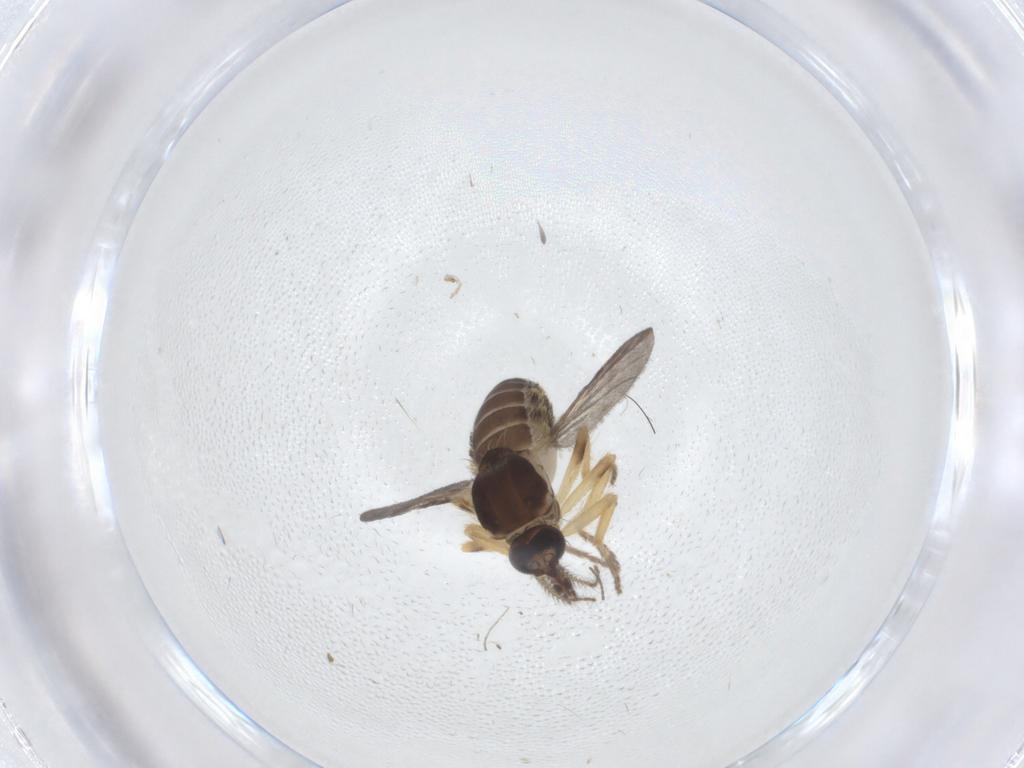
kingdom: Animalia
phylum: Arthropoda
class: Insecta
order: Diptera
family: Ceratopogonidae
